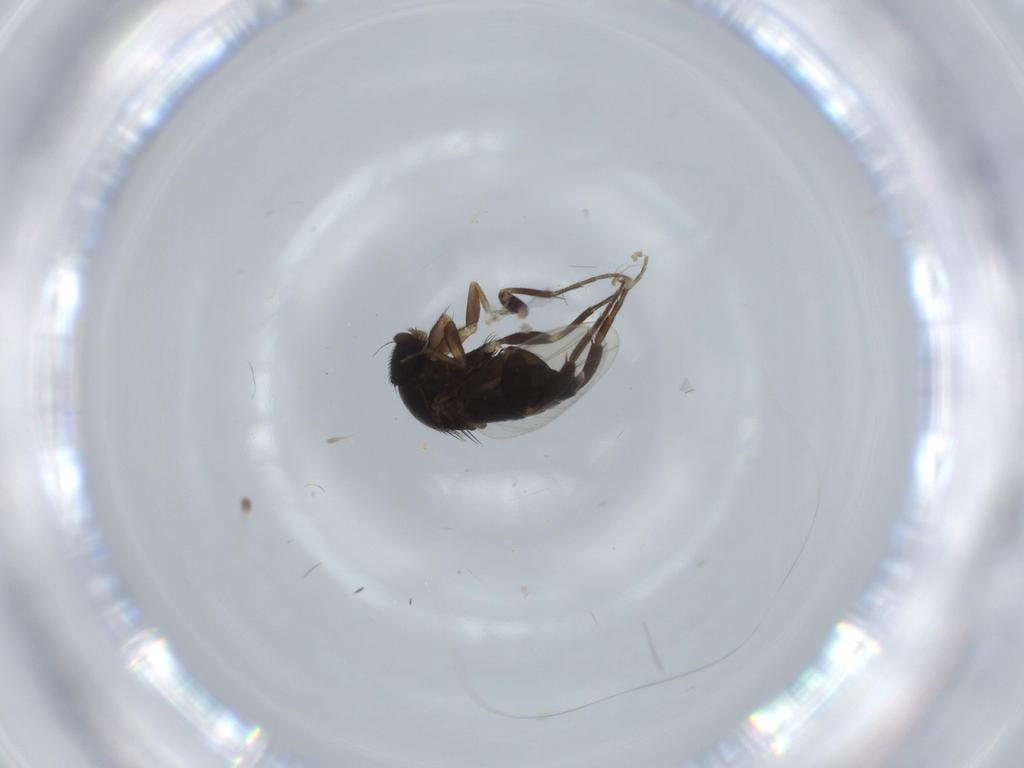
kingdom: Animalia
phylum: Arthropoda
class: Insecta
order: Diptera
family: Phoridae
